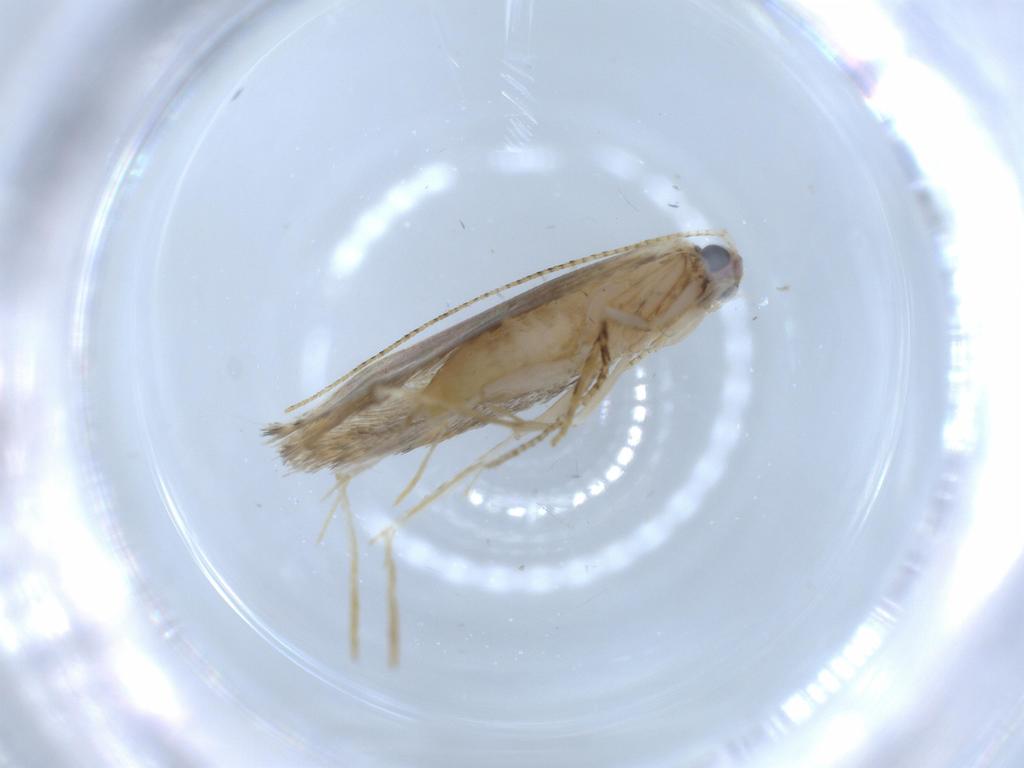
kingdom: Animalia
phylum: Arthropoda
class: Insecta
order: Lepidoptera
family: Tineidae
